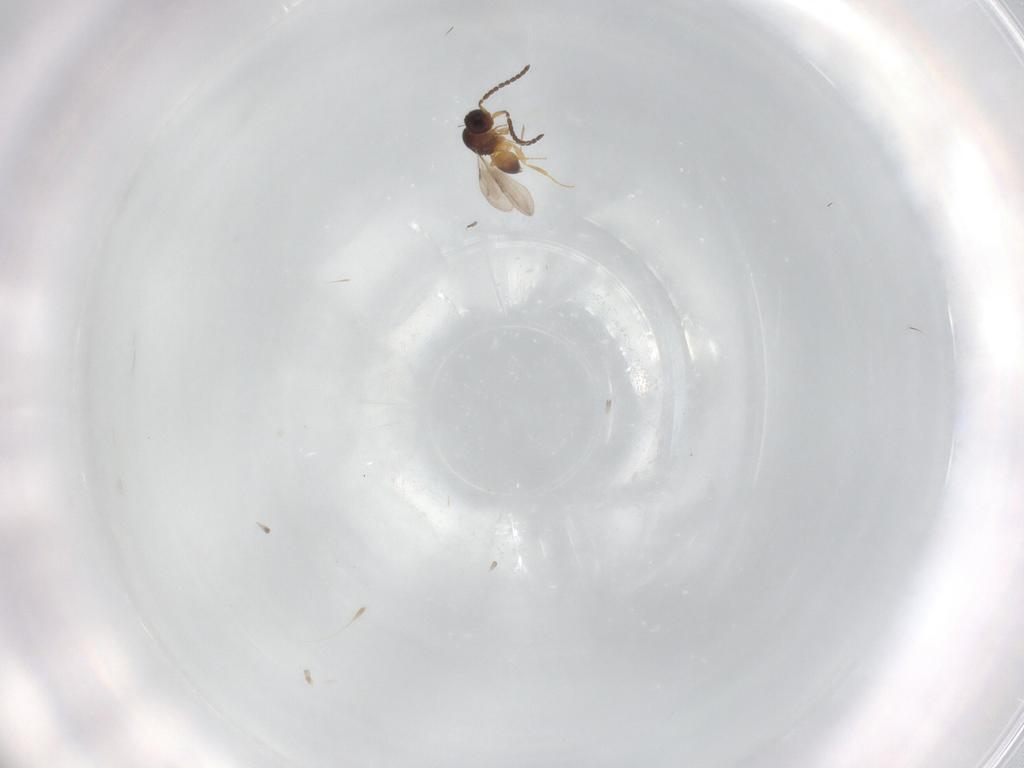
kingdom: Animalia
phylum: Arthropoda
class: Insecta
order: Hymenoptera
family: Ceraphronidae
